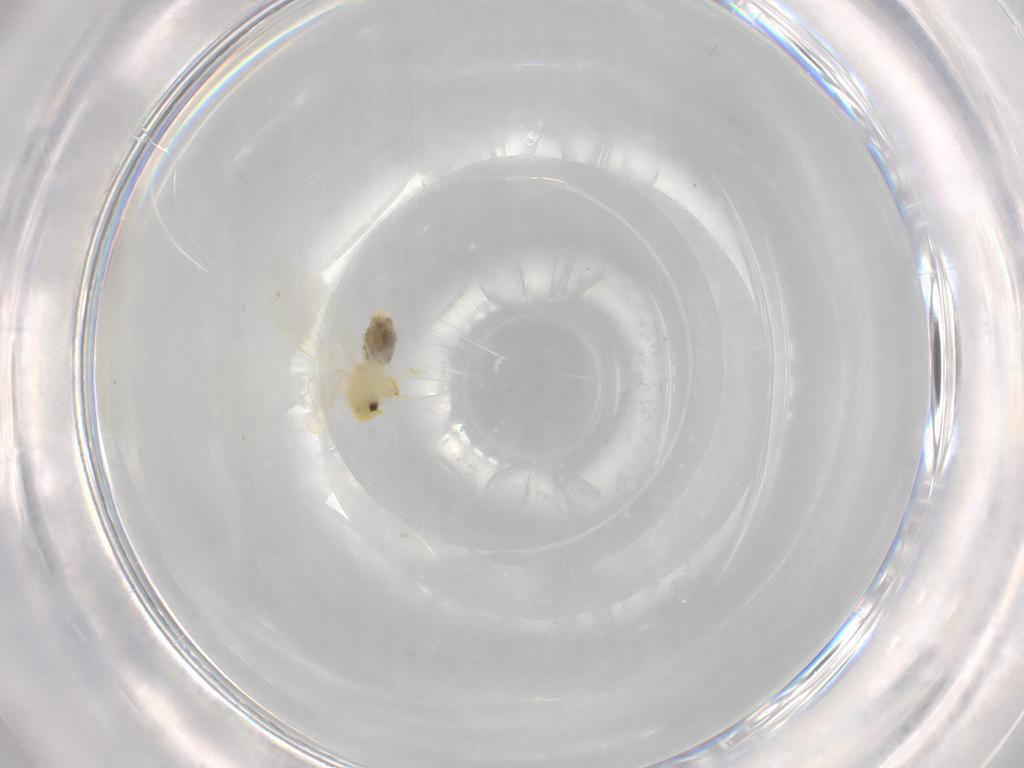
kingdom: Animalia
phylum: Arthropoda
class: Insecta
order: Hemiptera
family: Aleyrodidae
